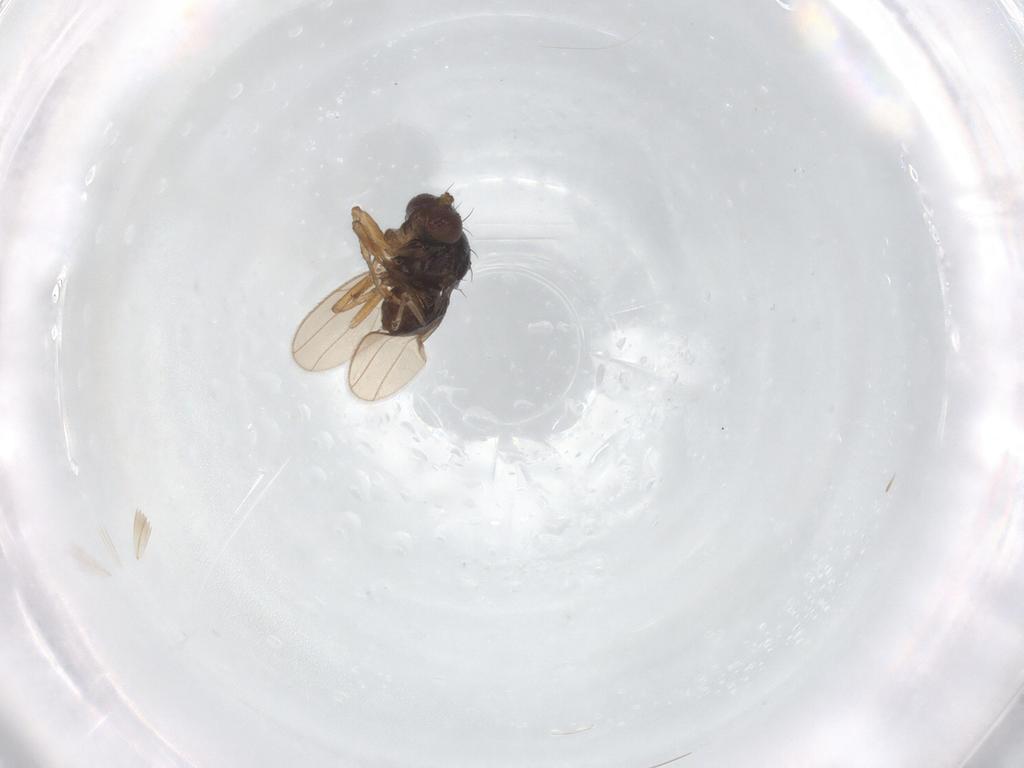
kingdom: Animalia
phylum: Arthropoda
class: Insecta
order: Diptera
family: Ephydridae
